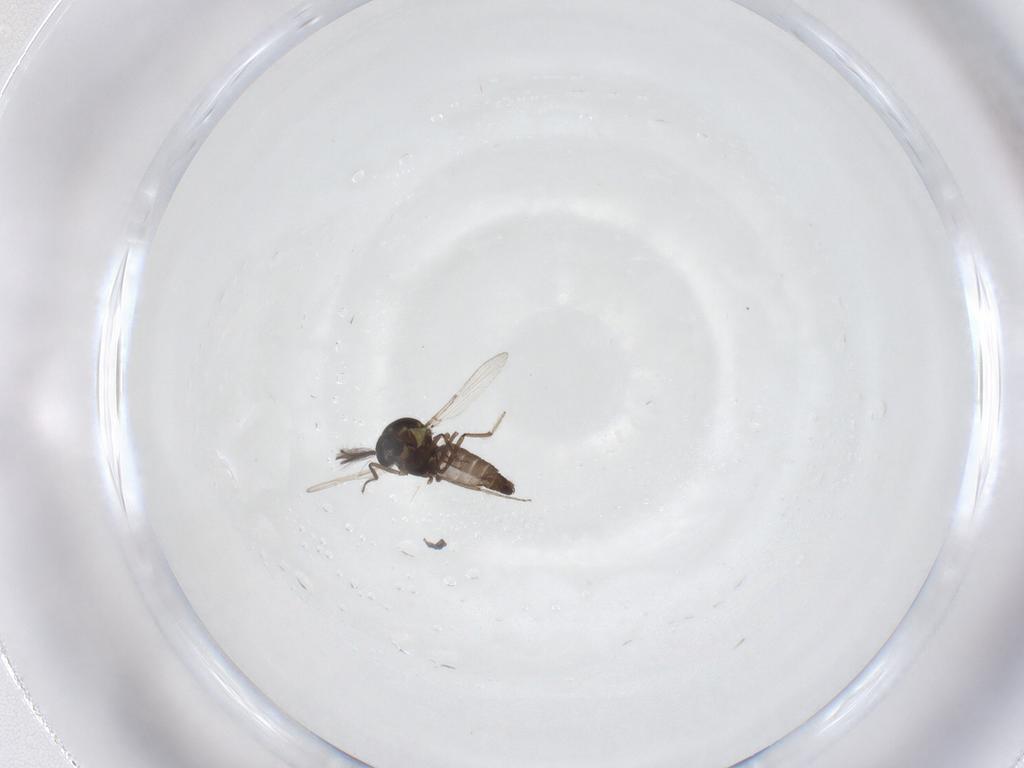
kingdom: Animalia
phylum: Arthropoda
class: Insecta
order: Diptera
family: Ceratopogonidae
